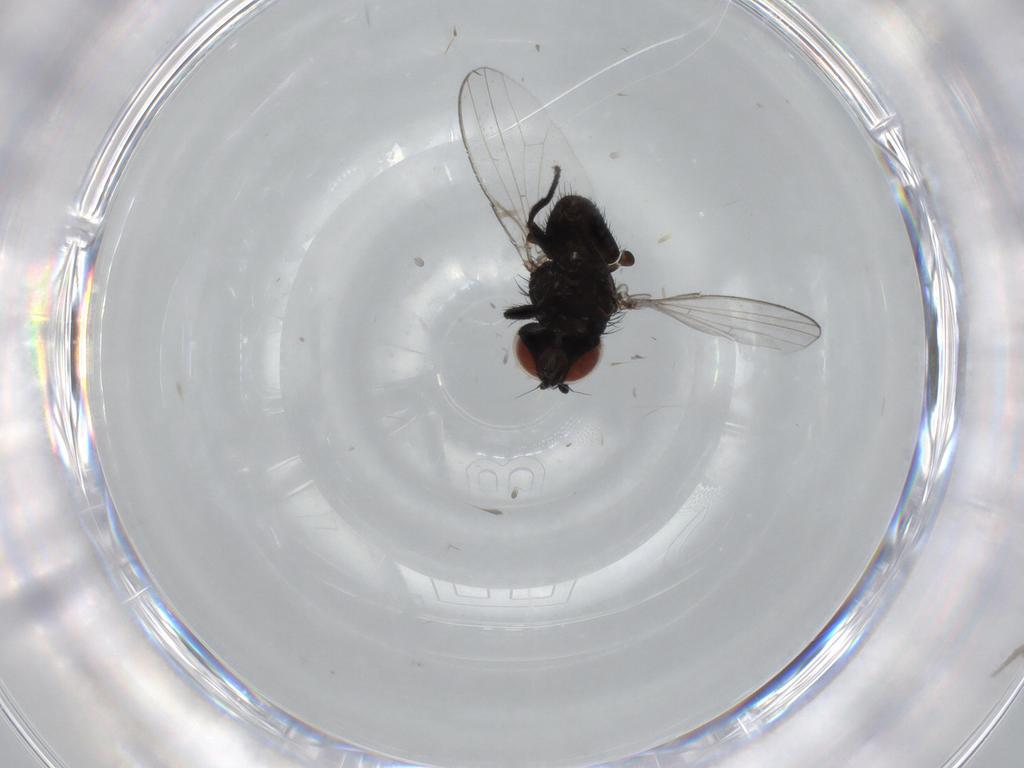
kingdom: Animalia
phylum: Arthropoda
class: Insecta
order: Diptera
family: Milichiidae
